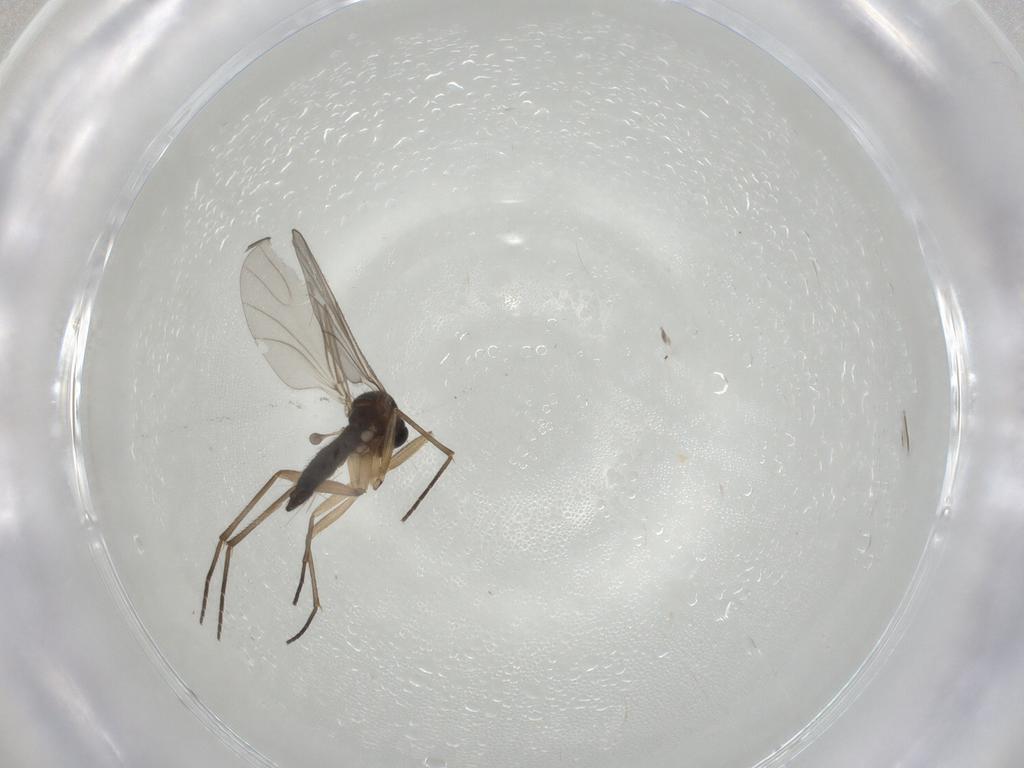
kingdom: Animalia
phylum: Arthropoda
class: Insecta
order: Diptera
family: Sciaridae
